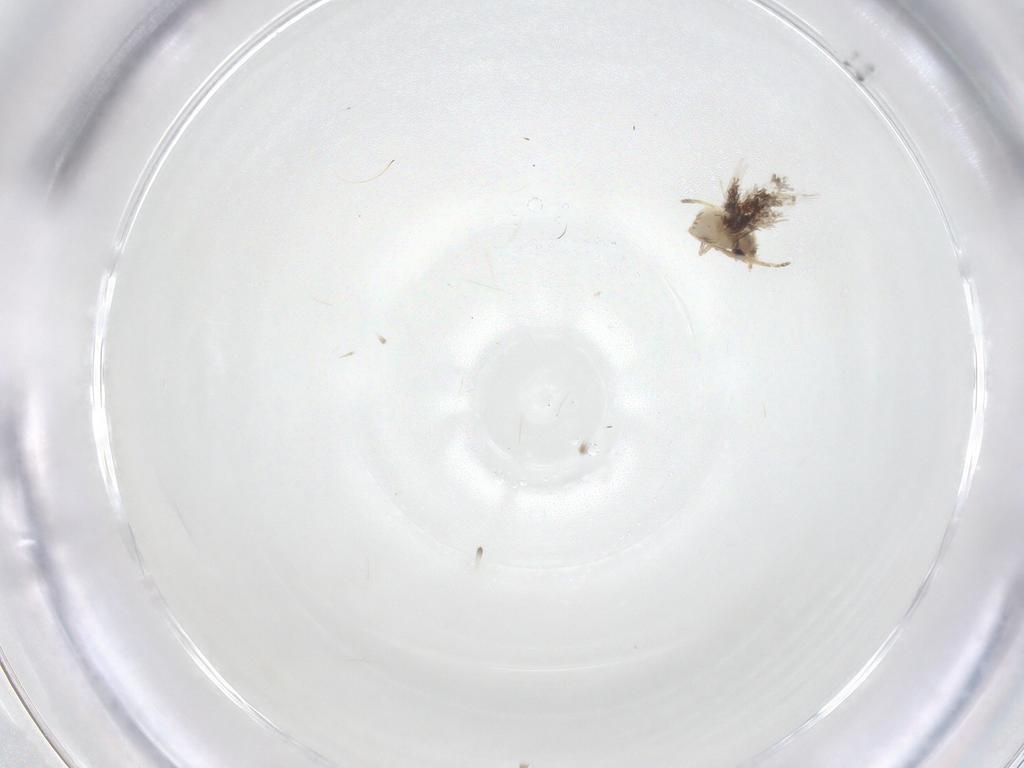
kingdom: Animalia
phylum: Arthropoda
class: Insecta
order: Lepidoptera
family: Nepticulidae
